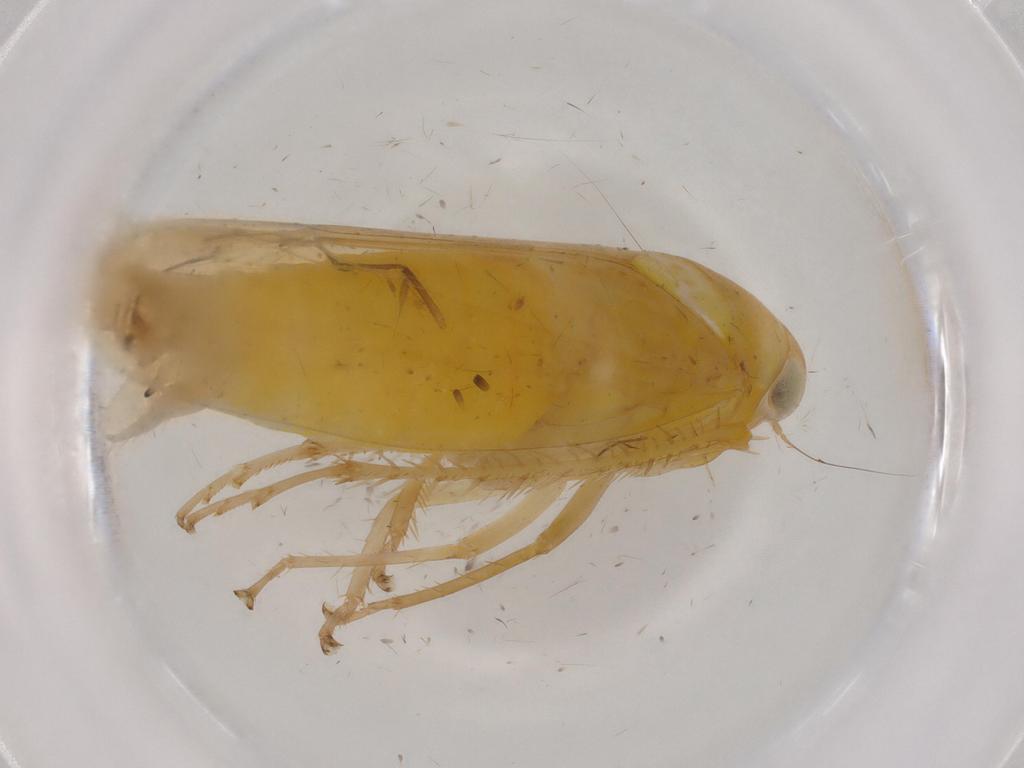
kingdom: Animalia
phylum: Arthropoda
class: Insecta
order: Hemiptera
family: Cicadellidae
